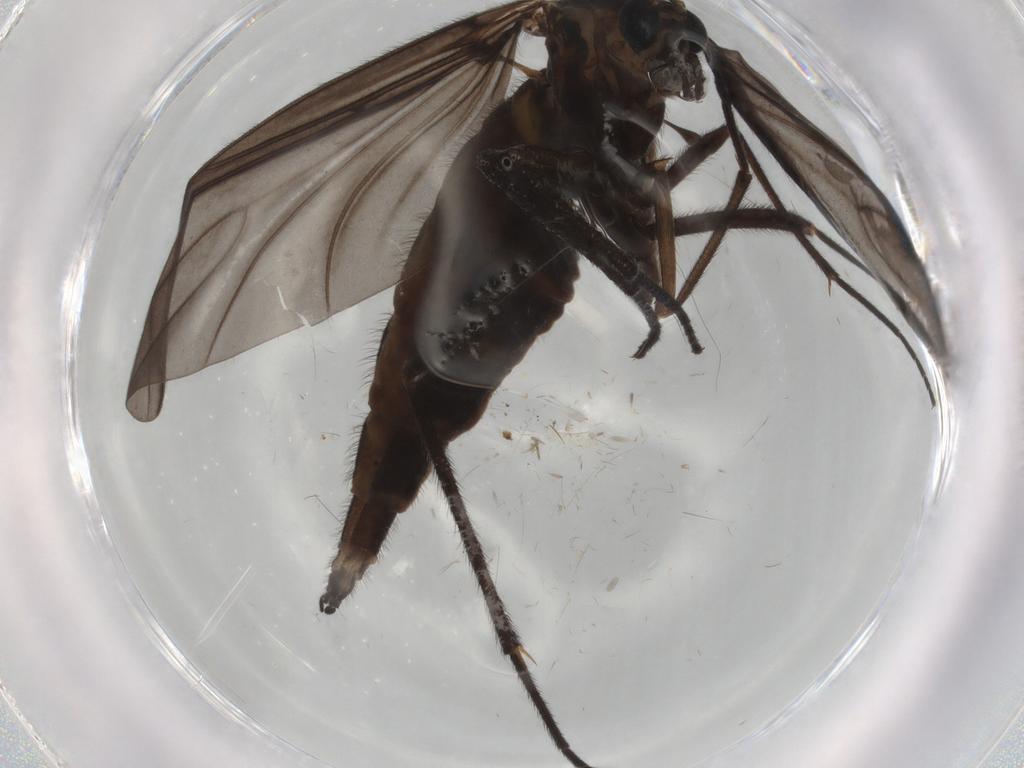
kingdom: Animalia
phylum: Arthropoda
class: Insecta
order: Diptera
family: Sciaridae
